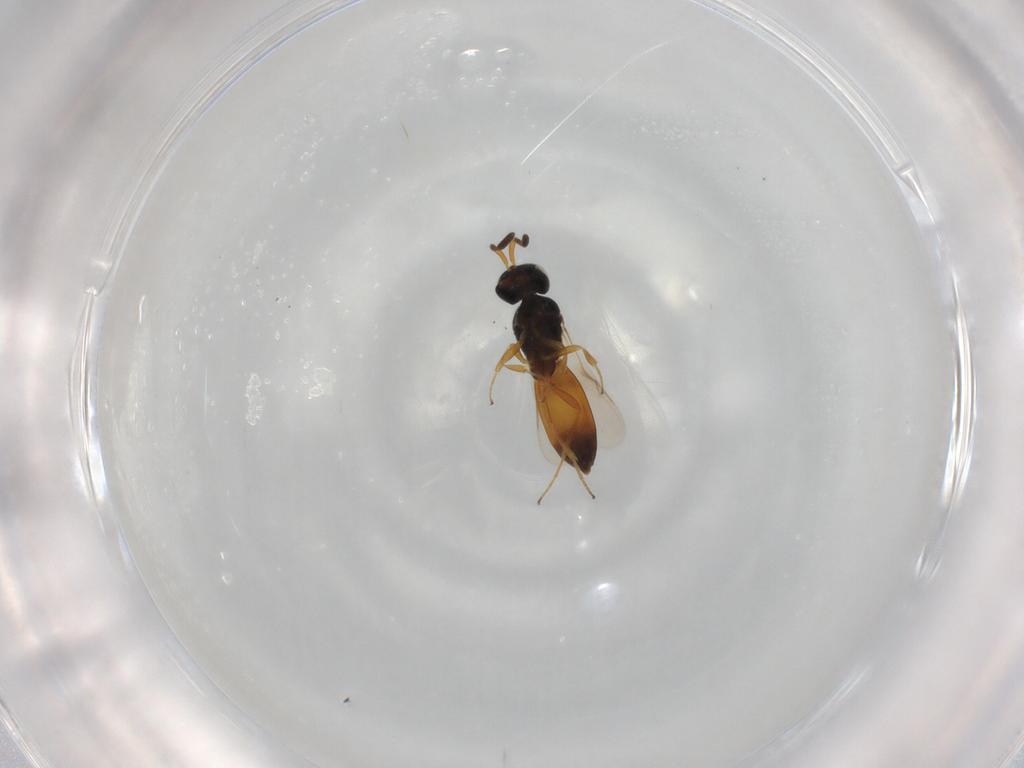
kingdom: Animalia
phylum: Arthropoda
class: Insecta
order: Hymenoptera
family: Scelionidae
